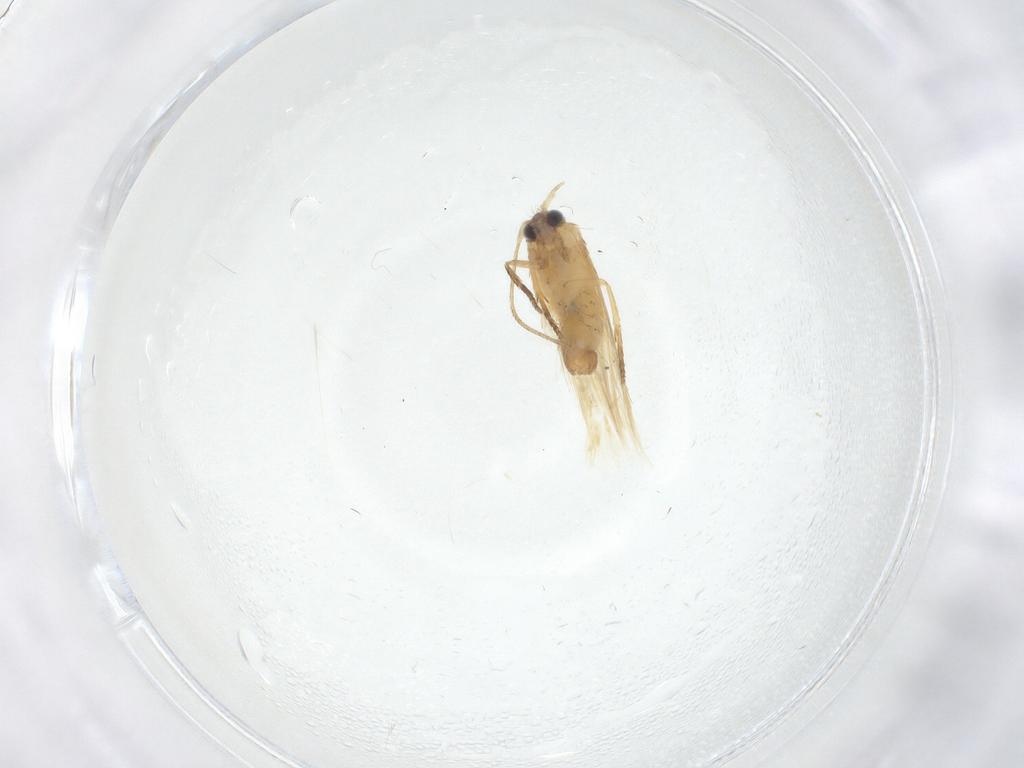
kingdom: Animalia
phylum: Arthropoda
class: Insecta
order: Lepidoptera
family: Nepticulidae
